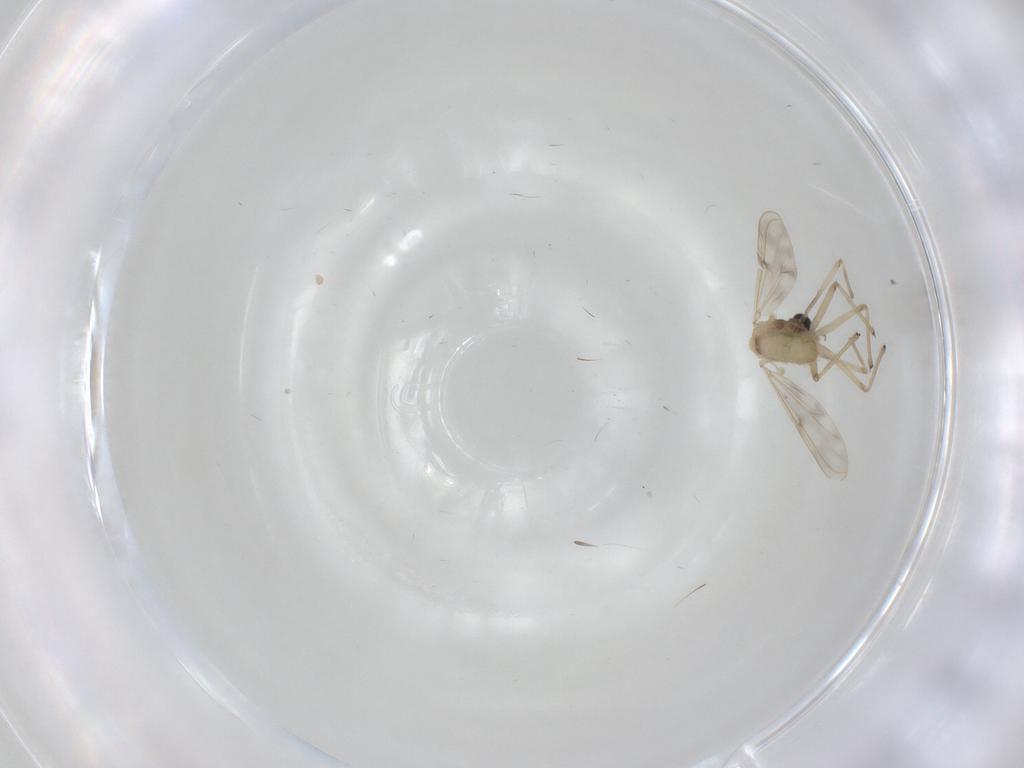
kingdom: Animalia
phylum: Arthropoda
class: Insecta
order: Diptera
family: Chironomidae
